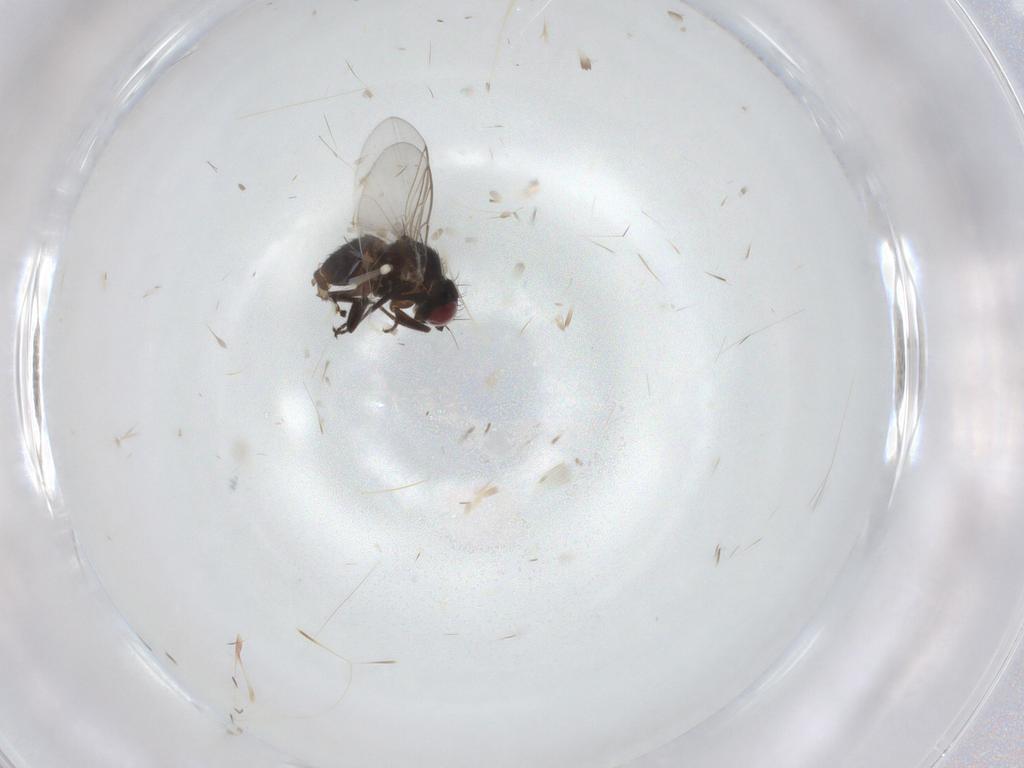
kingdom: Animalia
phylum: Arthropoda
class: Insecta
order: Diptera
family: Chironomidae
